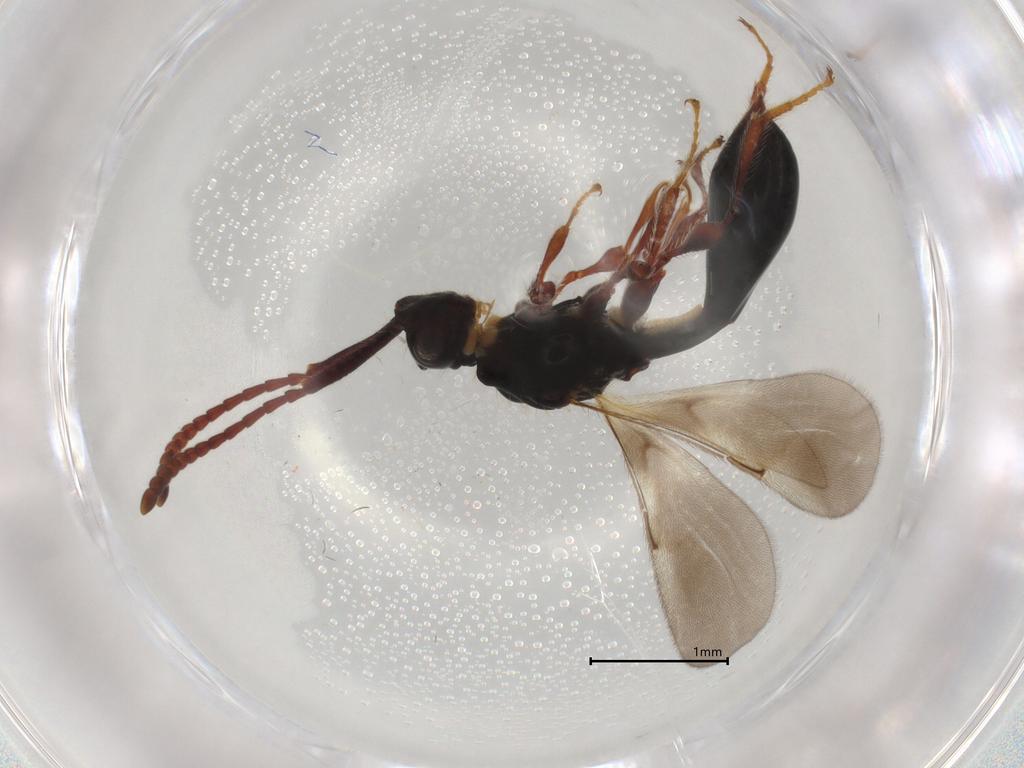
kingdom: Animalia
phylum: Arthropoda
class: Insecta
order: Hymenoptera
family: Diapriidae
